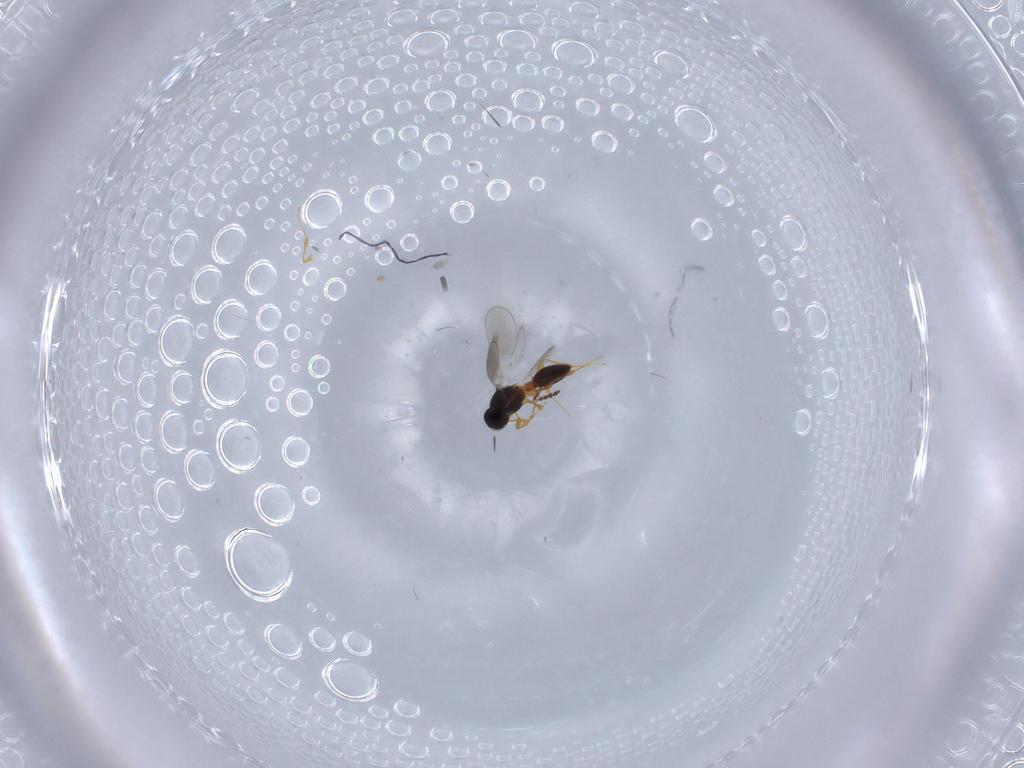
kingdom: Animalia
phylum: Arthropoda
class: Insecta
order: Hymenoptera
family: Platygastridae
